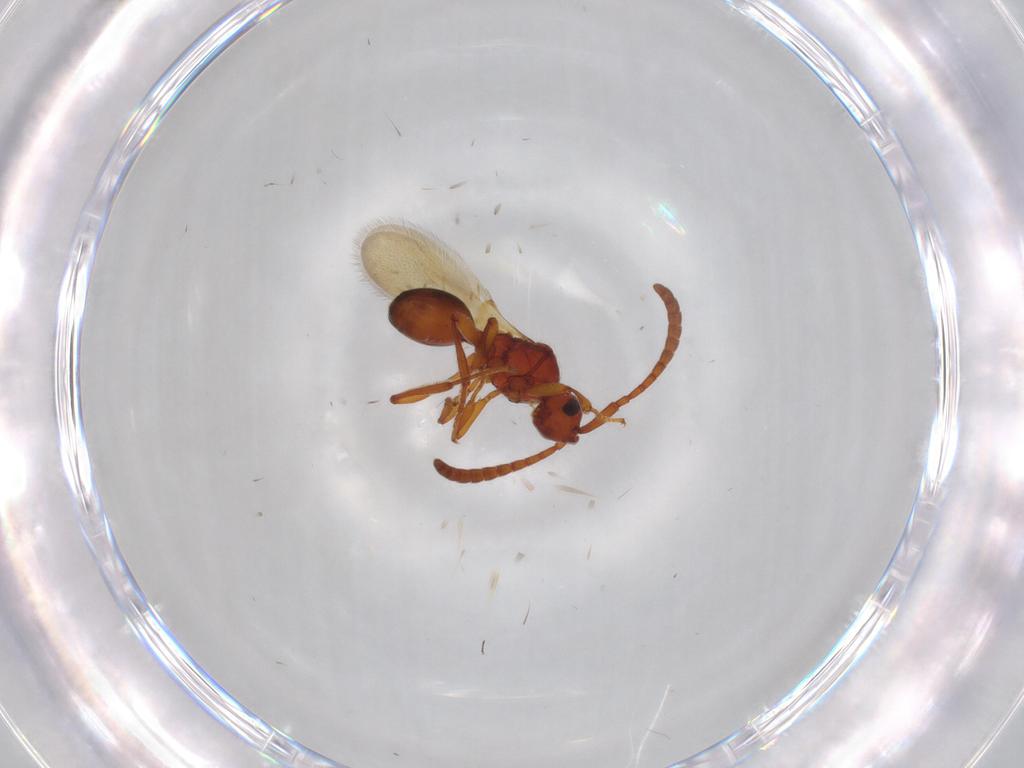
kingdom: Animalia
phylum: Arthropoda
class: Insecta
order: Hymenoptera
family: Diapriidae
